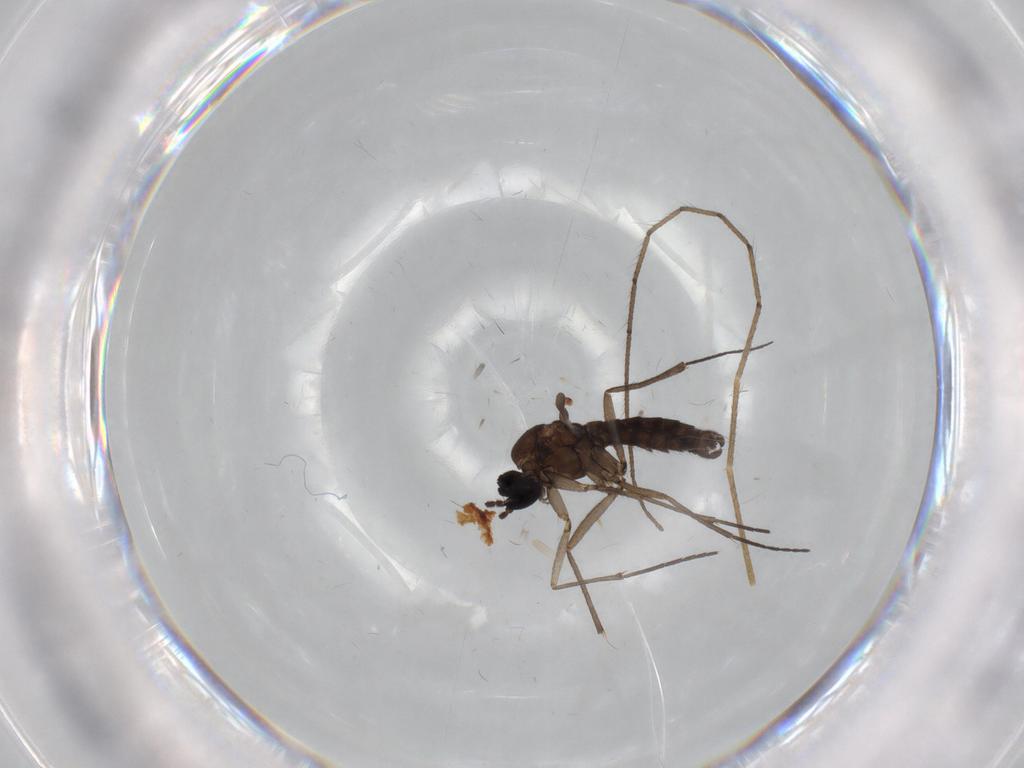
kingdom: Animalia
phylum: Arthropoda
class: Insecta
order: Diptera
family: Sciaridae
